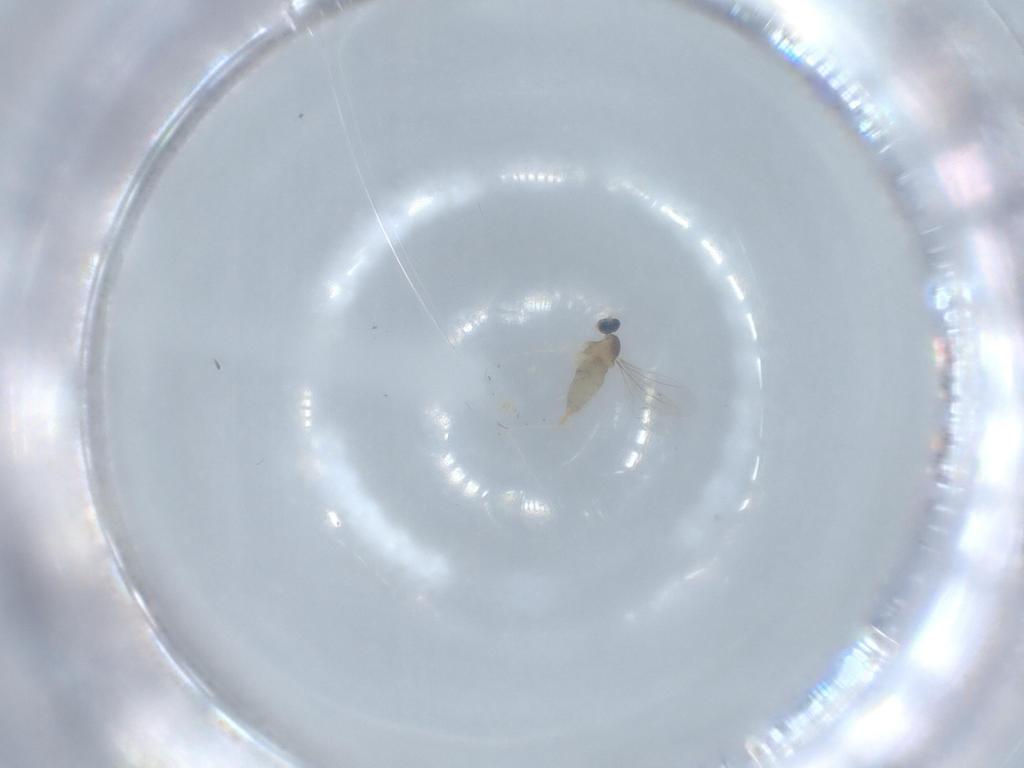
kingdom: Animalia
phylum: Arthropoda
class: Insecta
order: Diptera
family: Cecidomyiidae
